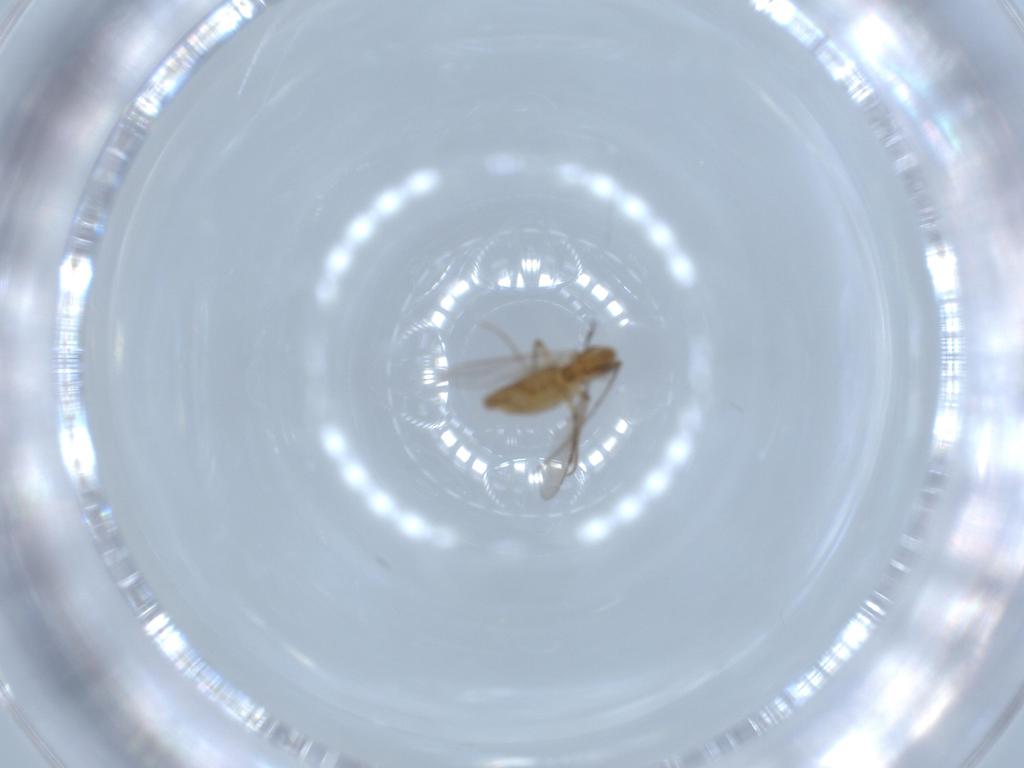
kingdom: Animalia
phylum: Arthropoda
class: Insecta
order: Diptera
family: Chironomidae
